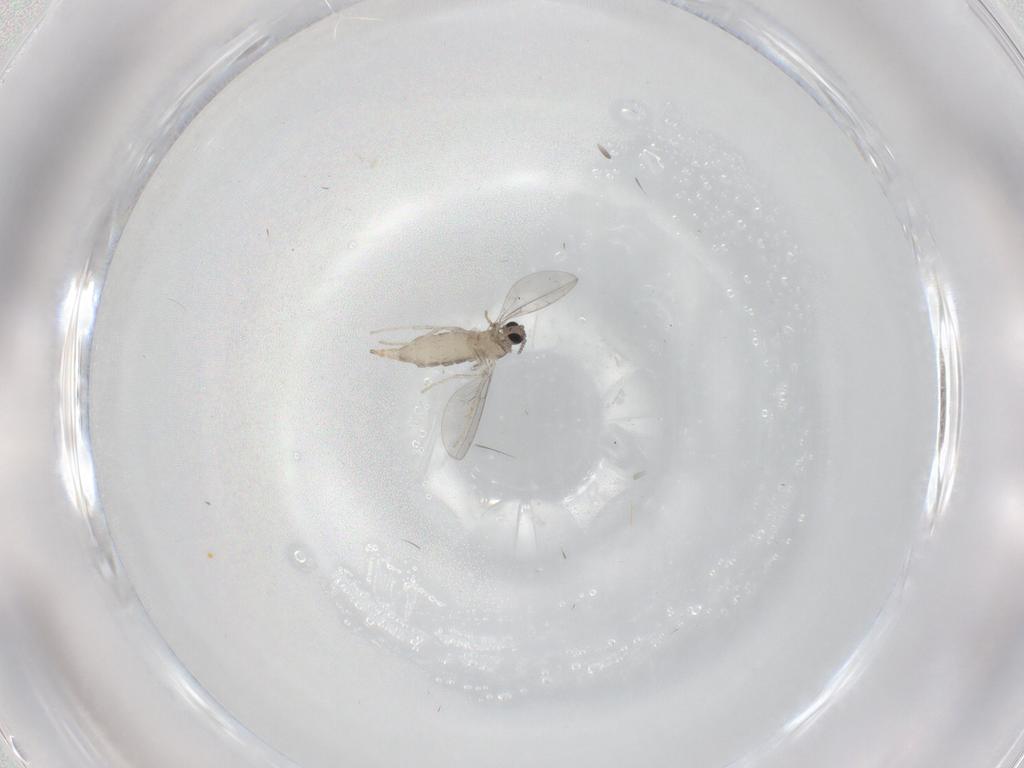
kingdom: Animalia
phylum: Arthropoda
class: Insecta
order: Diptera
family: Cecidomyiidae
